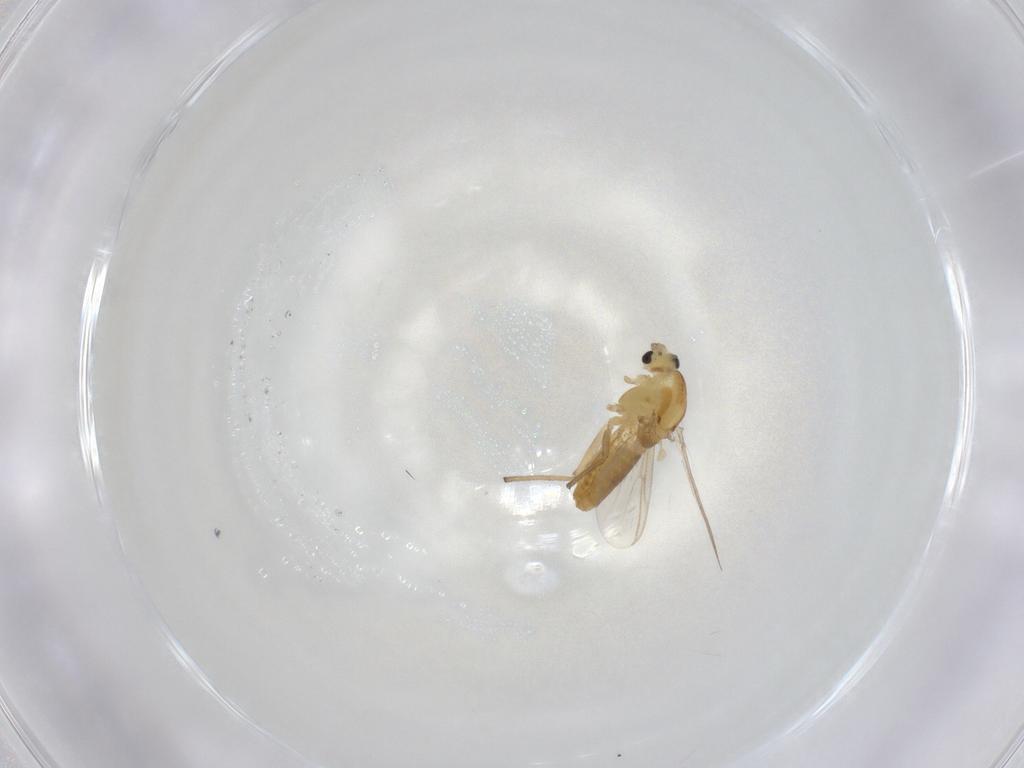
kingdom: Animalia
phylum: Arthropoda
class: Insecta
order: Diptera
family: Chironomidae
